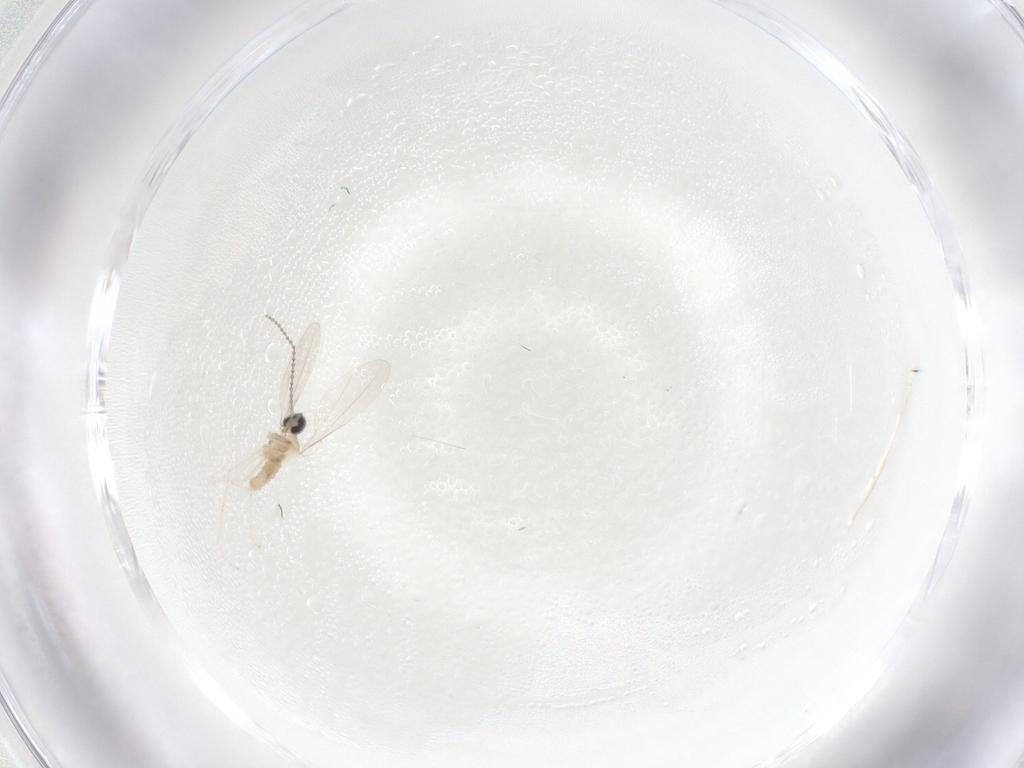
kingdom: Animalia
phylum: Arthropoda
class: Insecta
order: Diptera
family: Cecidomyiidae
